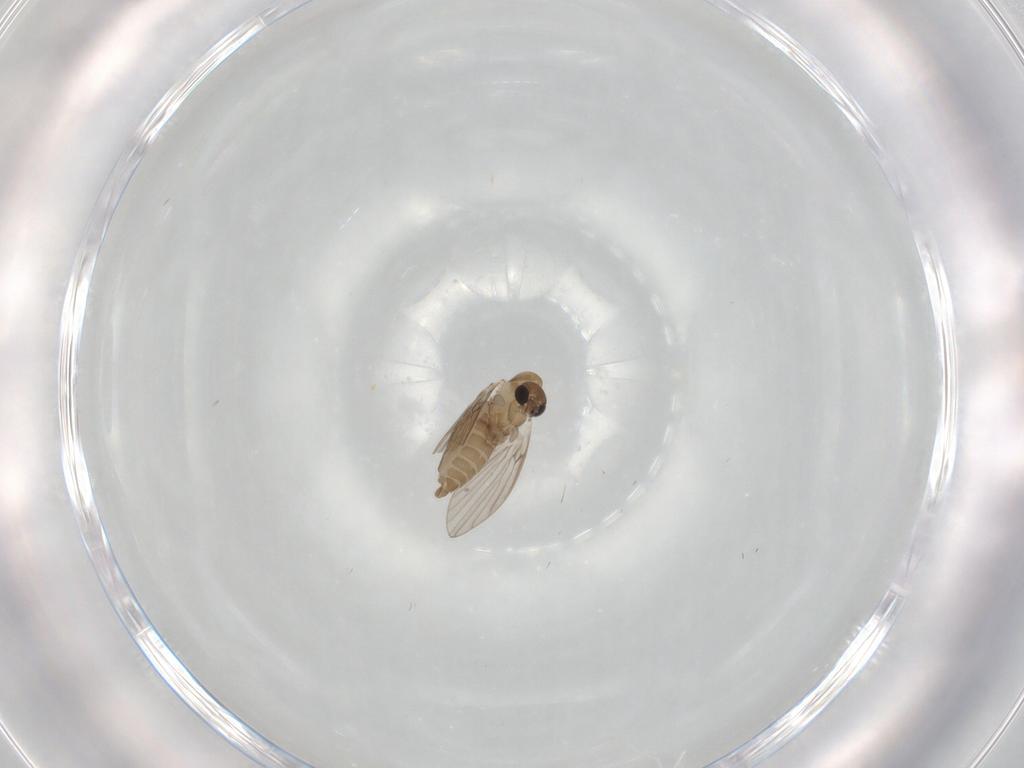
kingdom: Animalia
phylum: Arthropoda
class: Insecta
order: Diptera
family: Psychodidae
